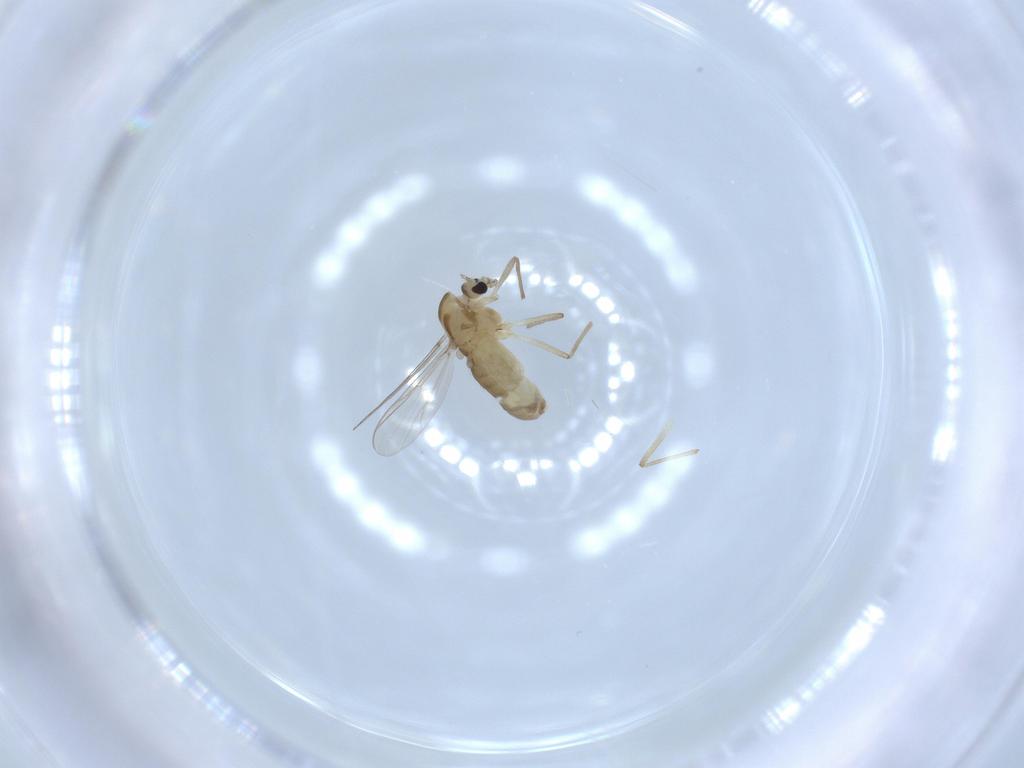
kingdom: Animalia
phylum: Arthropoda
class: Insecta
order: Diptera
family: Chironomidae
